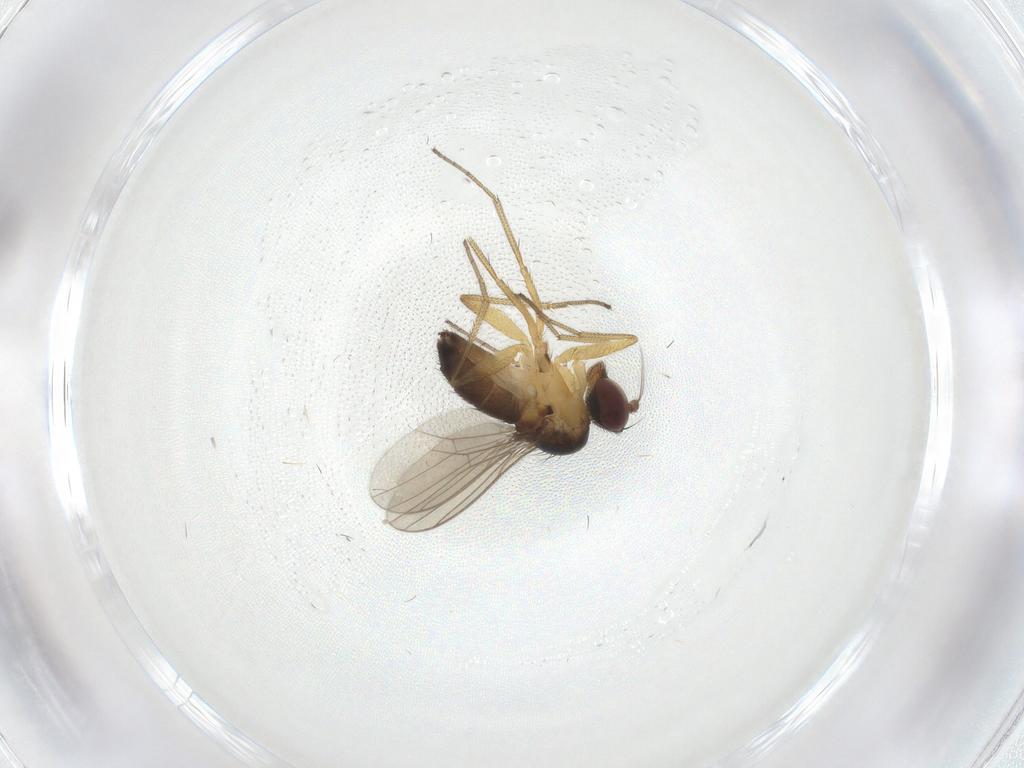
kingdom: Animalia
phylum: Arthropoda
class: Insecta
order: Diptera
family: Dolichopodidae
